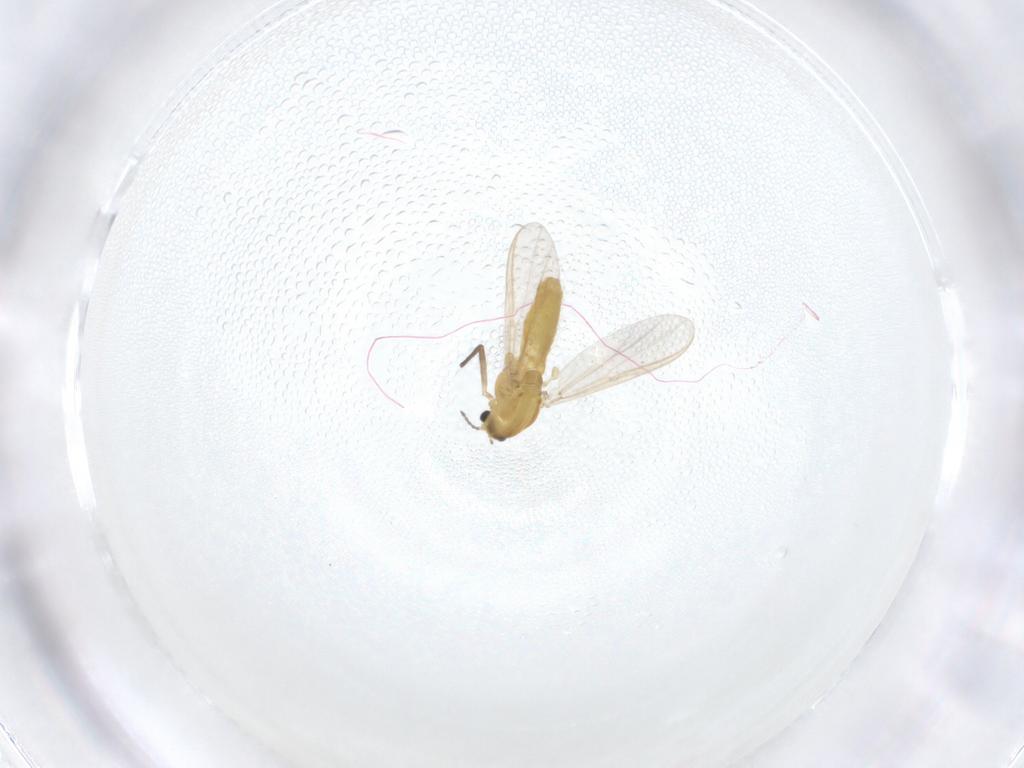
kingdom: Animalia
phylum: Arthropoda
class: Insecta
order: Diptera
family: Chironomidae
